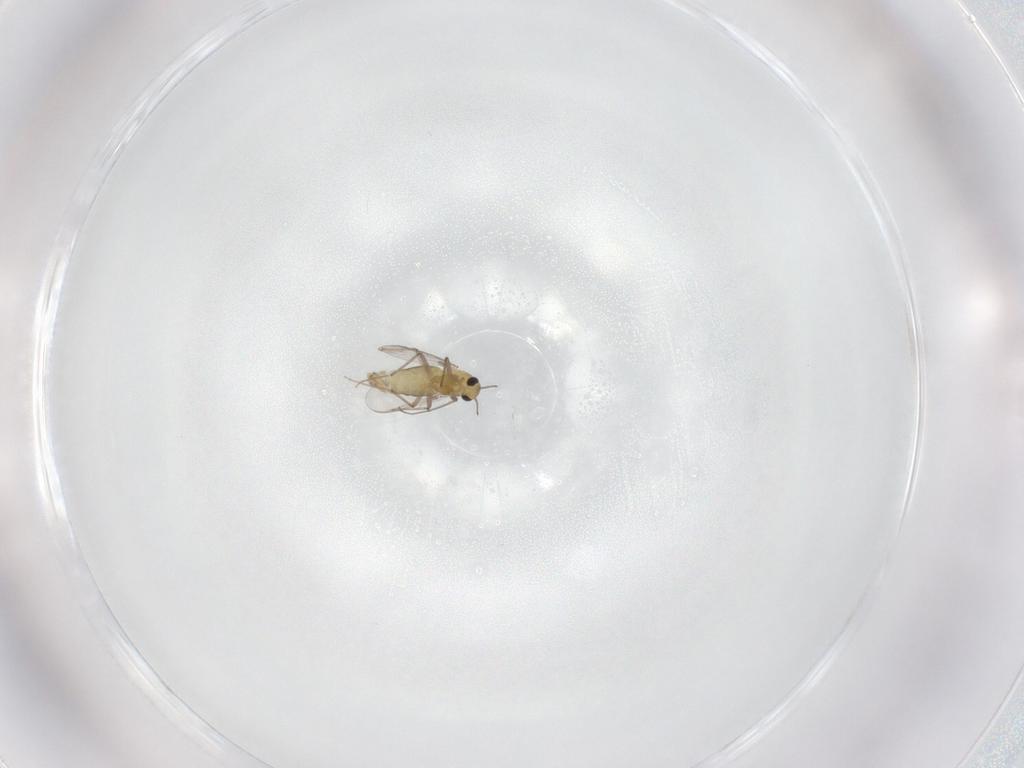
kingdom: Animalia
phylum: Arthropoda
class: Insecta
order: Diptera
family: Chironomidae
